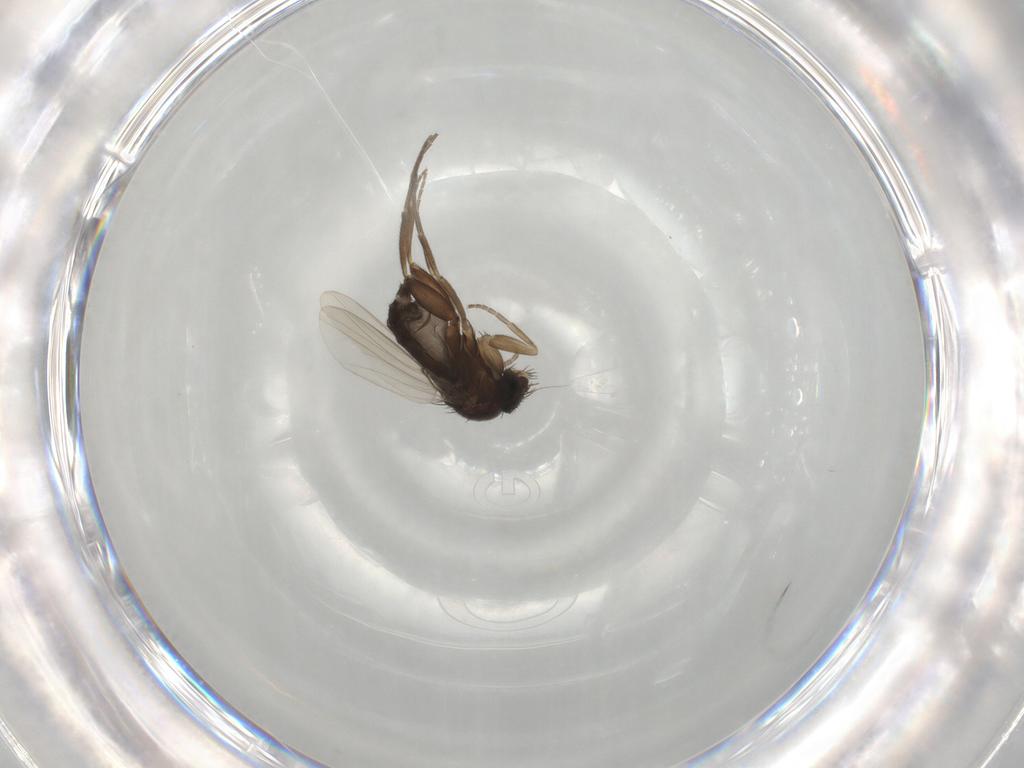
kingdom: Animalia
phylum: Arthropoda
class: Insecta
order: Diptera
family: Phoridae
